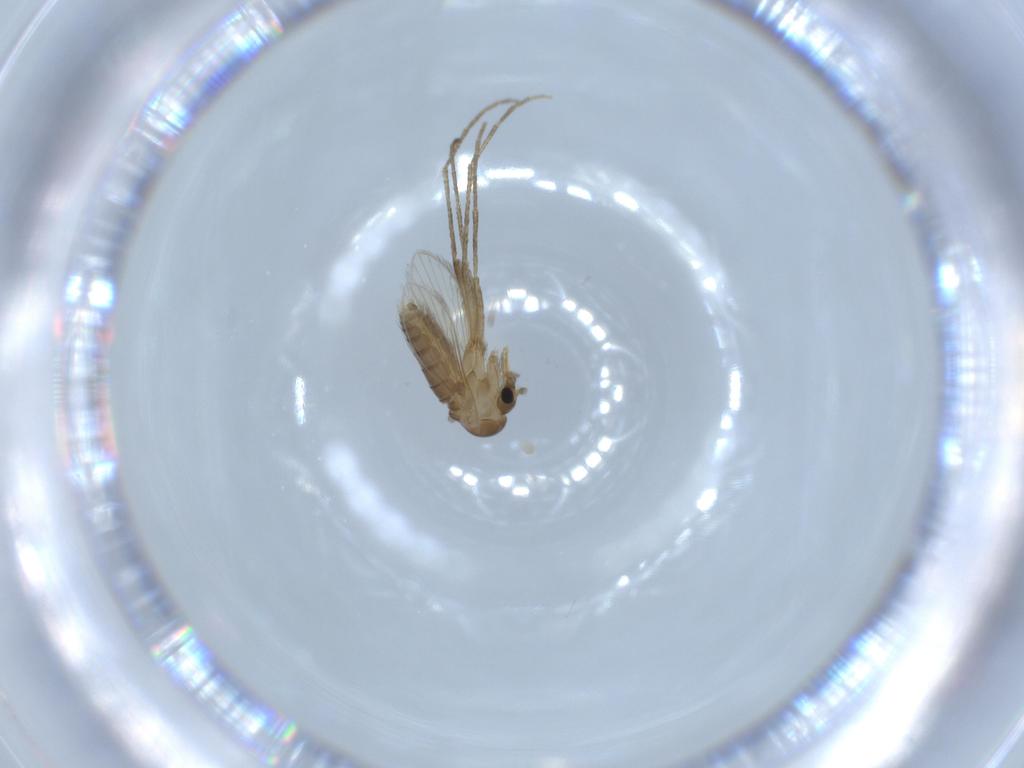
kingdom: Animalia
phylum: Arthropoda
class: Insecta
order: Diptera
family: Psychodidae
